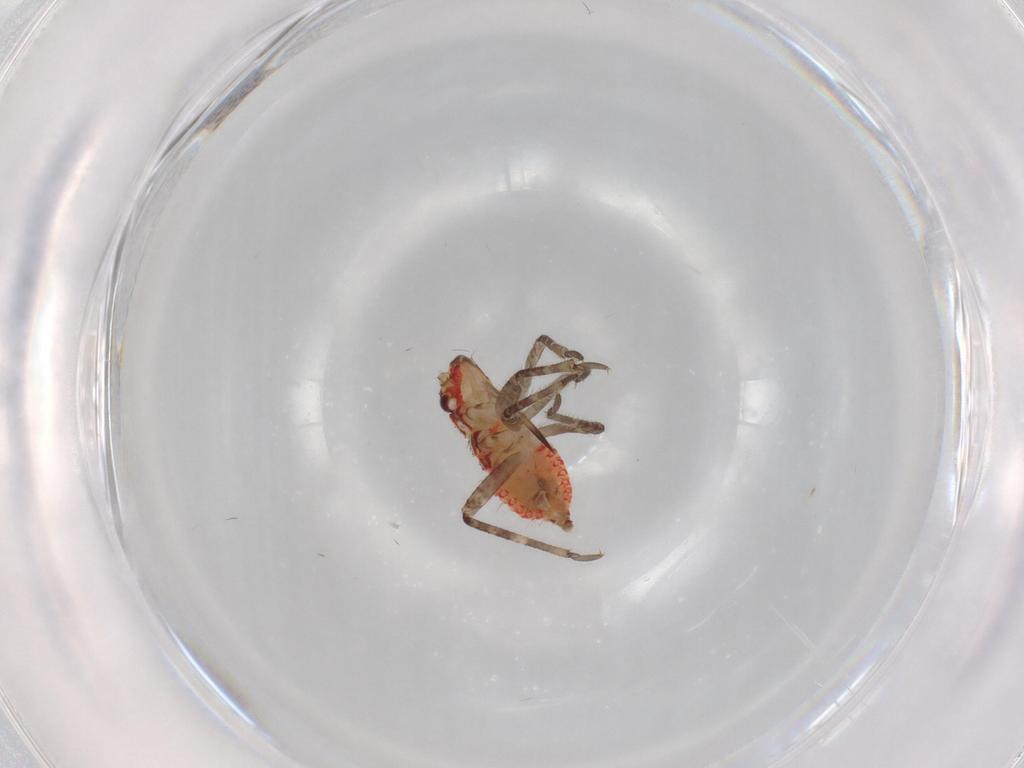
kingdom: Animalia
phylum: Arthropoda
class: Insecta
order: Hemiptera
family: Miridae
